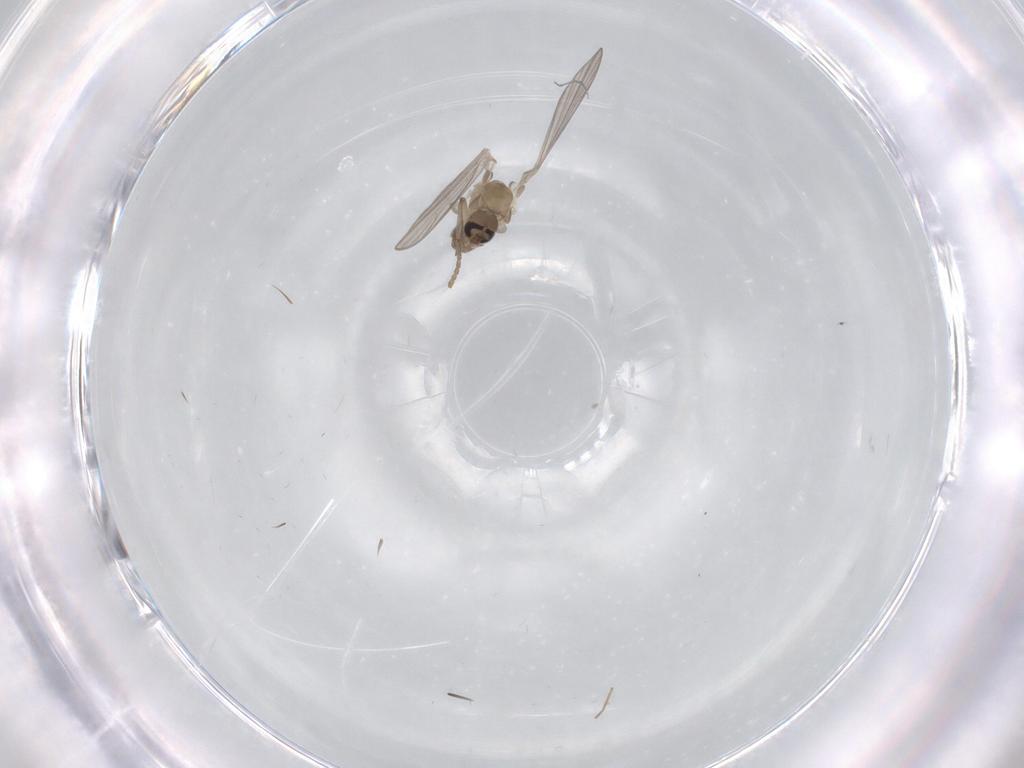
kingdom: Animalia
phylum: Arthropoda
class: Insecta
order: Diptera
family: Psychodidae
